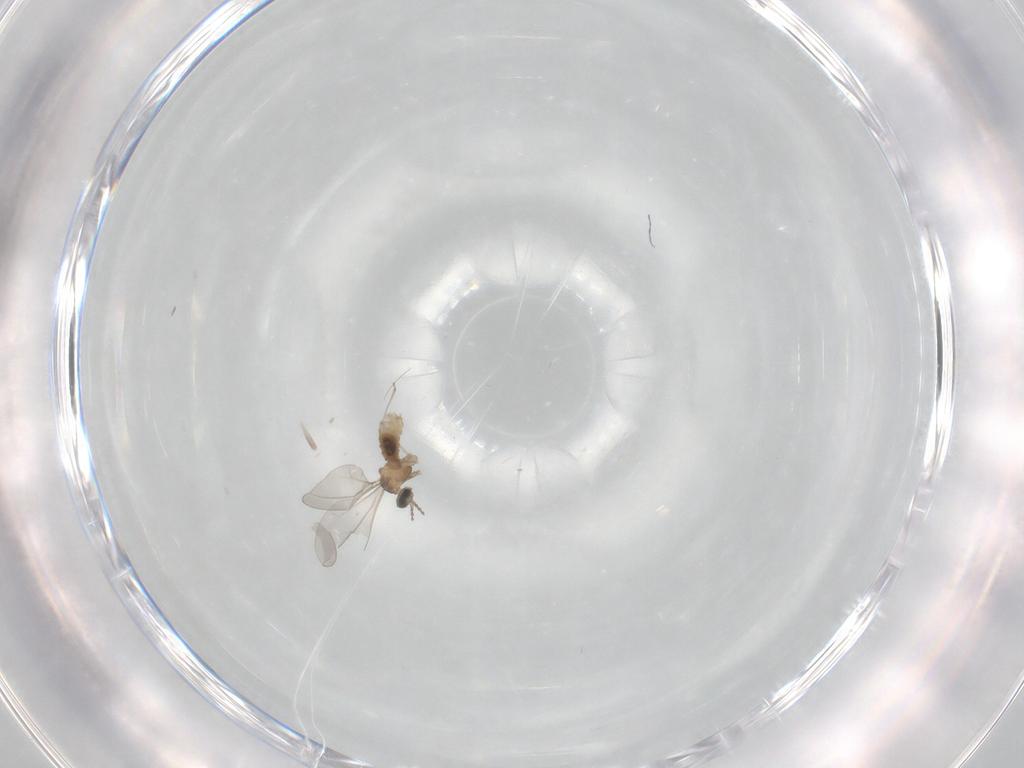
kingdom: Animalia
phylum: Arthropoda
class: Insecta
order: Diptera
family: Cecidomyiidae
